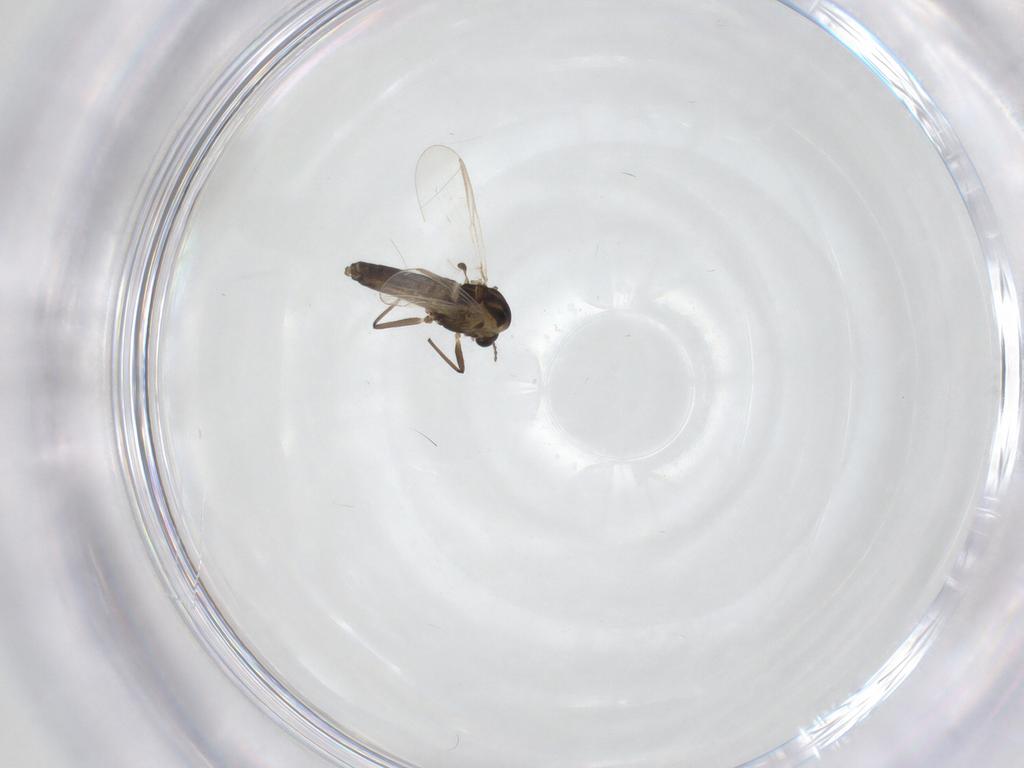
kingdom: Animalia
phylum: Arthropoda
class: Insecta
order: Diptera
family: Chironomidae
